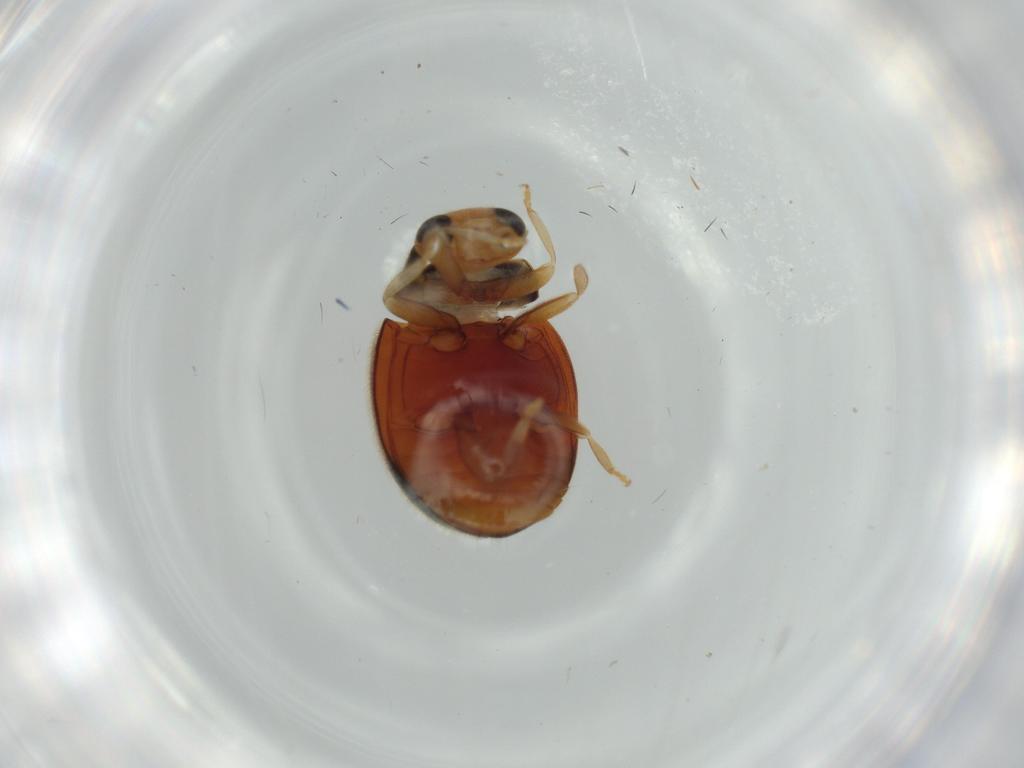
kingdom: Animalia
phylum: Arthropoda
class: Insecta
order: Coleoptera
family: Coccinellidae
